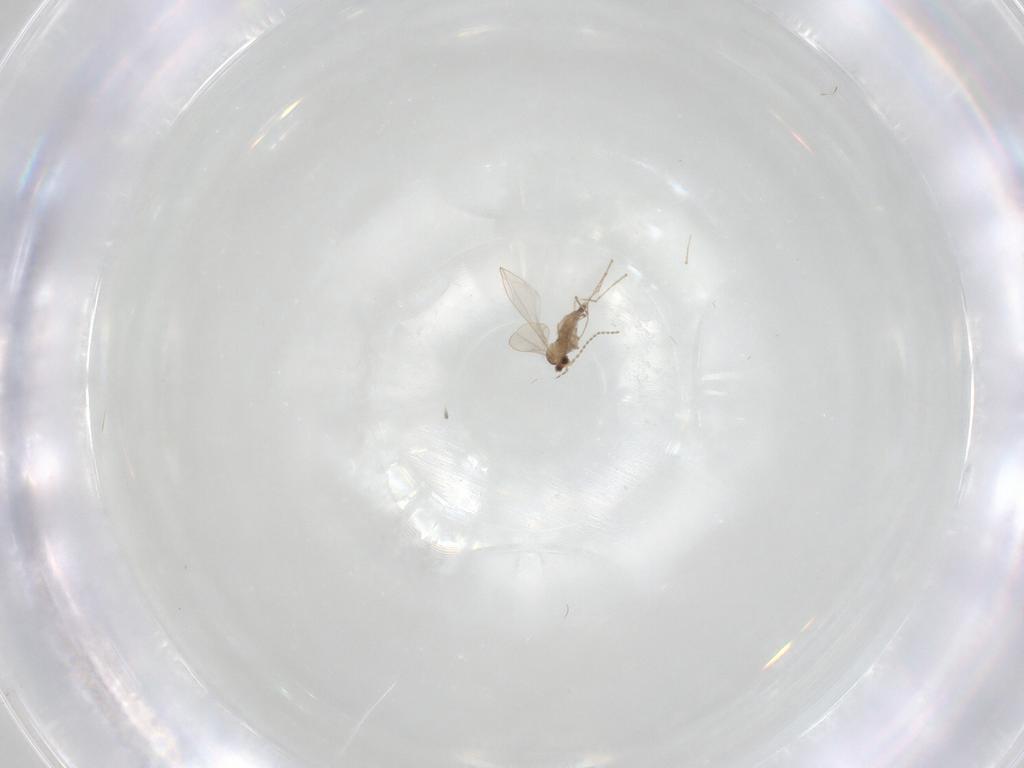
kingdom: Animalia
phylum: Arthropoda
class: Insecta
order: Diptera
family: Cecidomyiidae
